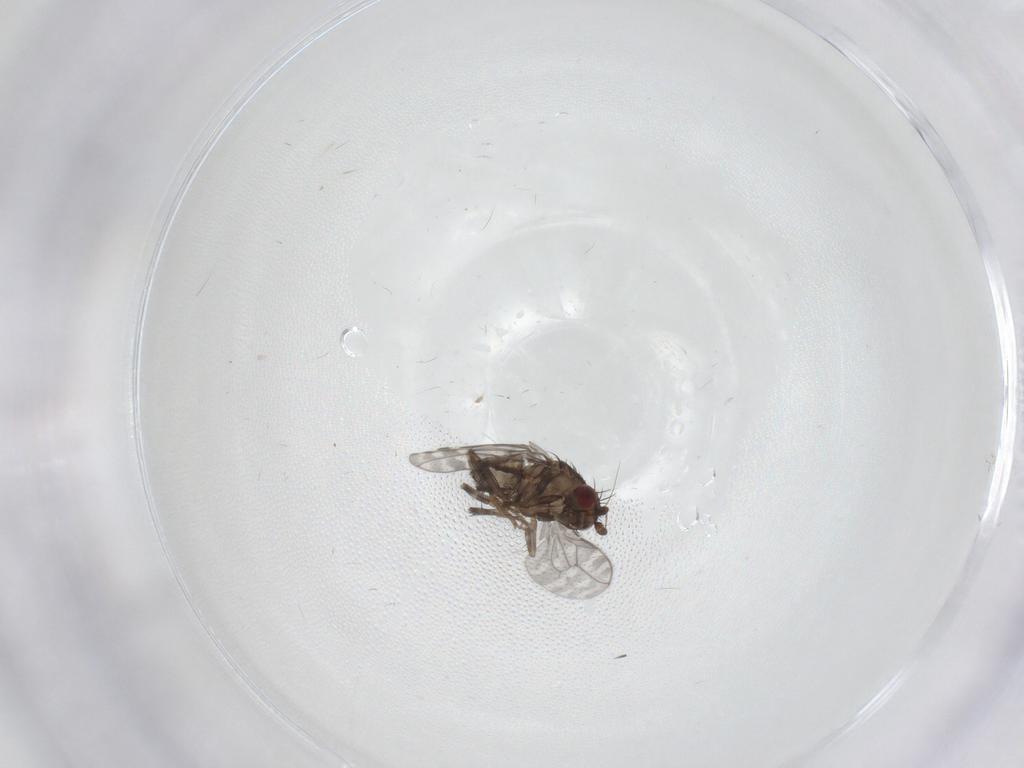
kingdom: Animalia
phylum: Arthropoda
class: Insecta
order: Diptera
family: Sphaeroceridae
